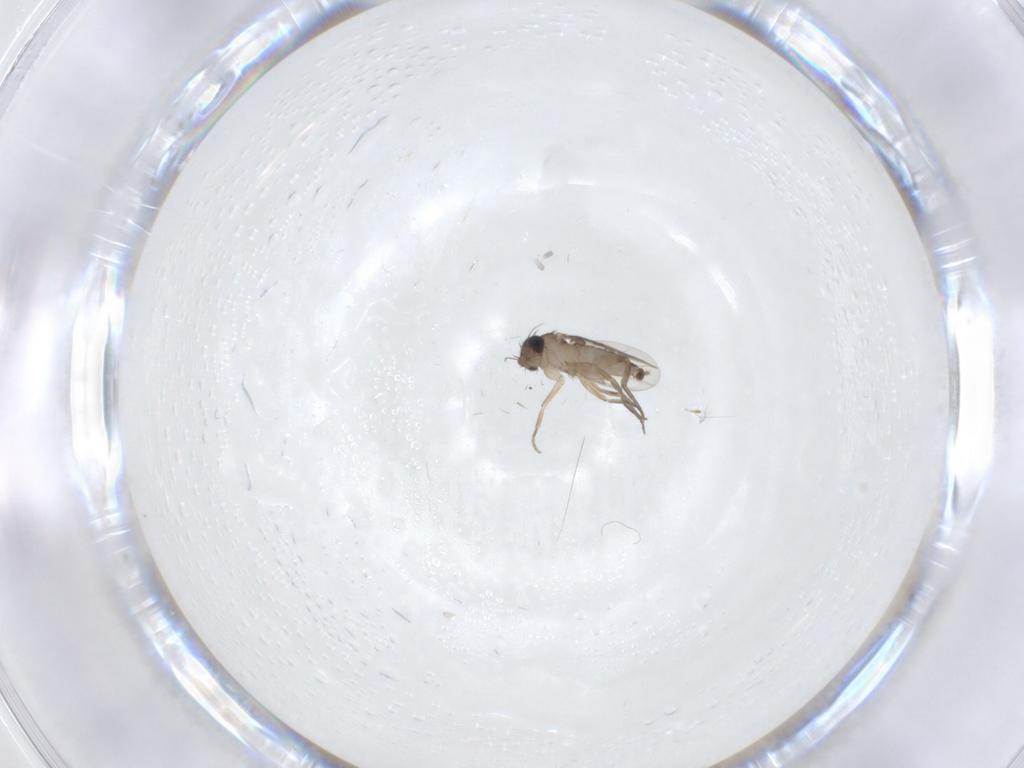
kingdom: Animalia
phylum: Arthropoda
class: Insecta
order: Diptera
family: Phoridae
